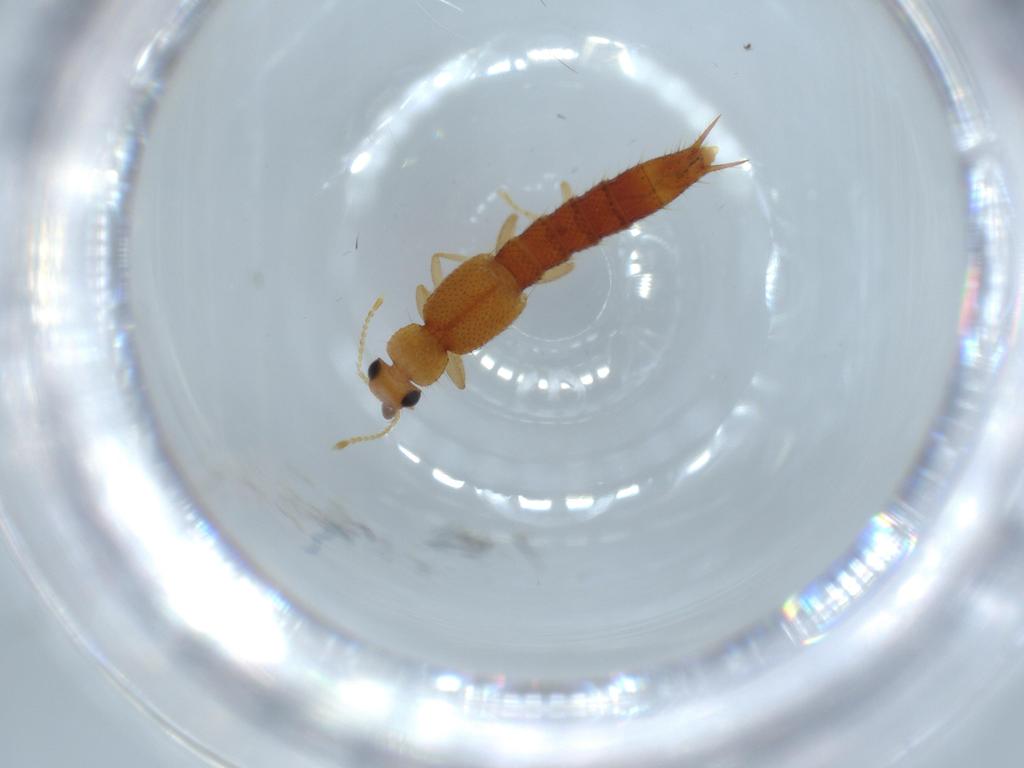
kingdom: Animalia
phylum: Arthropoda
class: Insecta
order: Coleoptera
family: Staphylinidae
